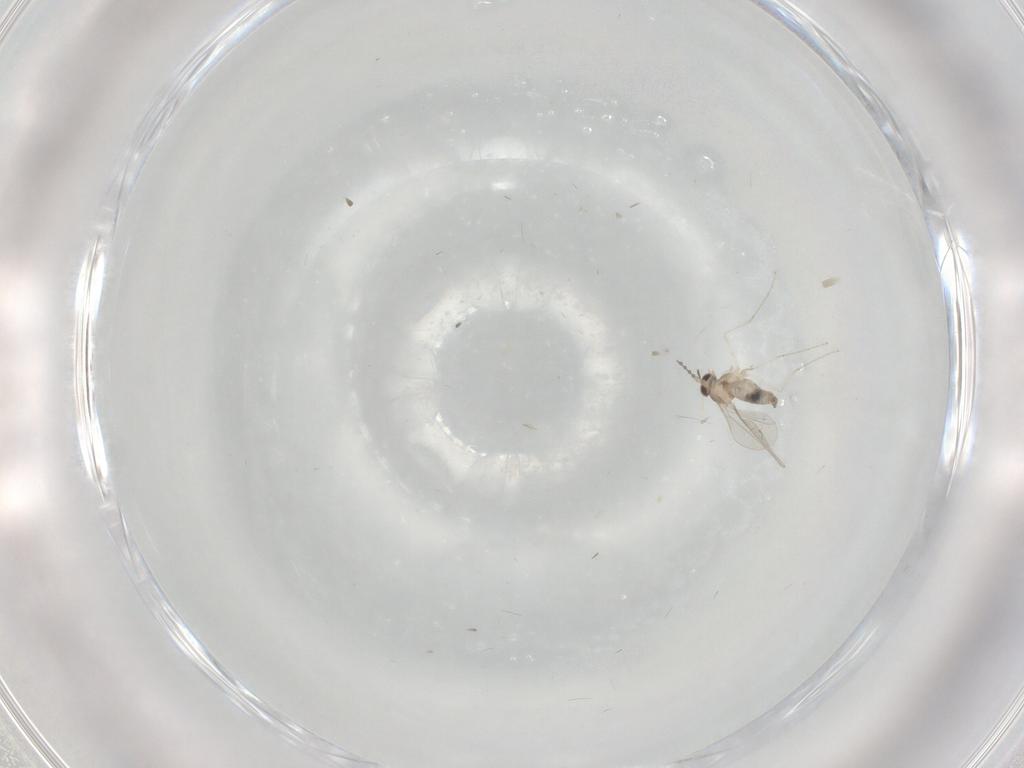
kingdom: Animalia
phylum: Arthropoda
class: Insecta
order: Diptera
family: Cecidomyiidae
